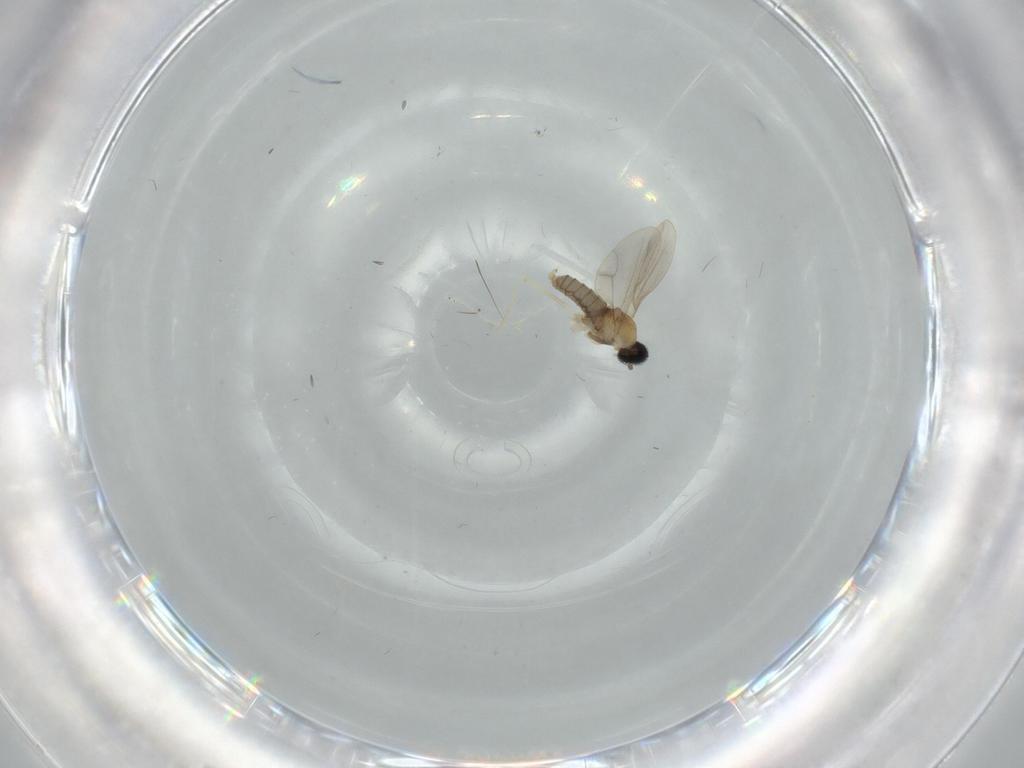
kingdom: Animalia
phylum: Arthropoda
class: Insecta
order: Diptera
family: Cecidomyiidae
